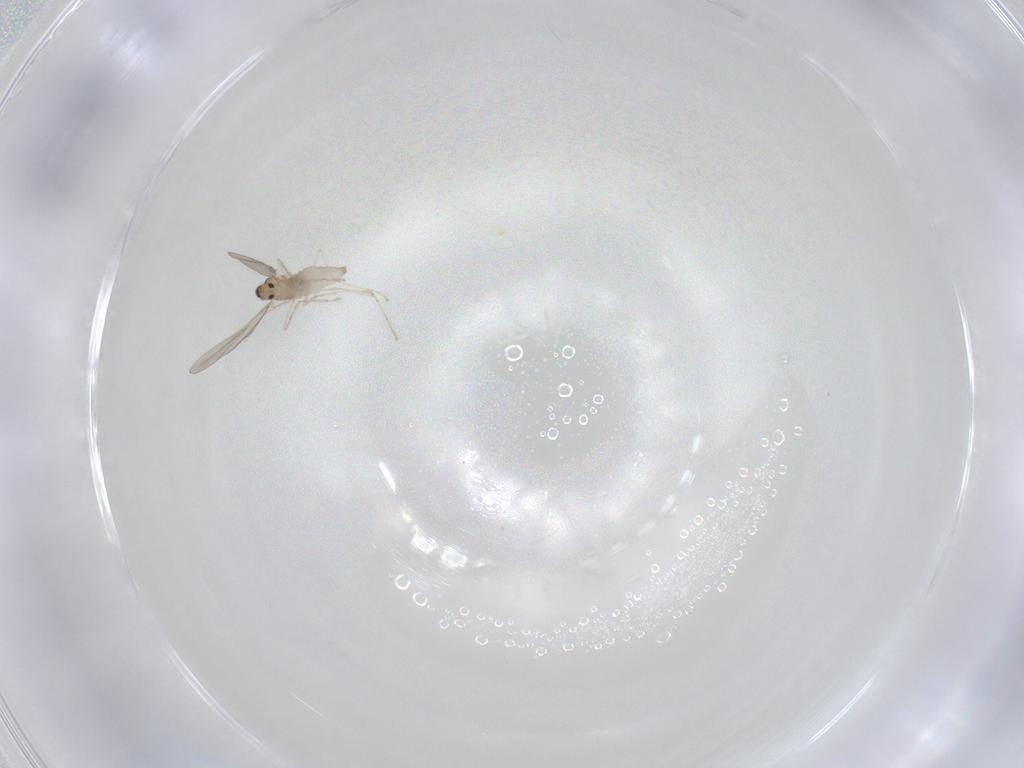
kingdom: Animalia
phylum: Arthropoda
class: Insecta
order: Diptera
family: Cecidomyiidae
